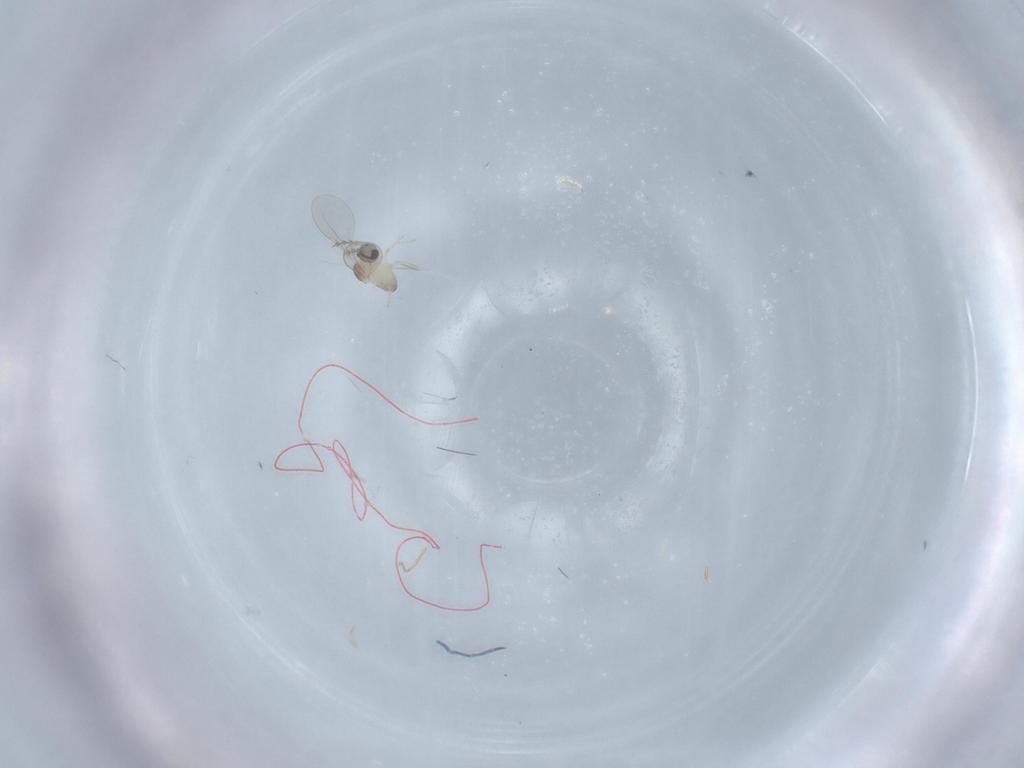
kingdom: Animalia
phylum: Arthropoda
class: Insecta
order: Diptera
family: Cecidomyiidae
